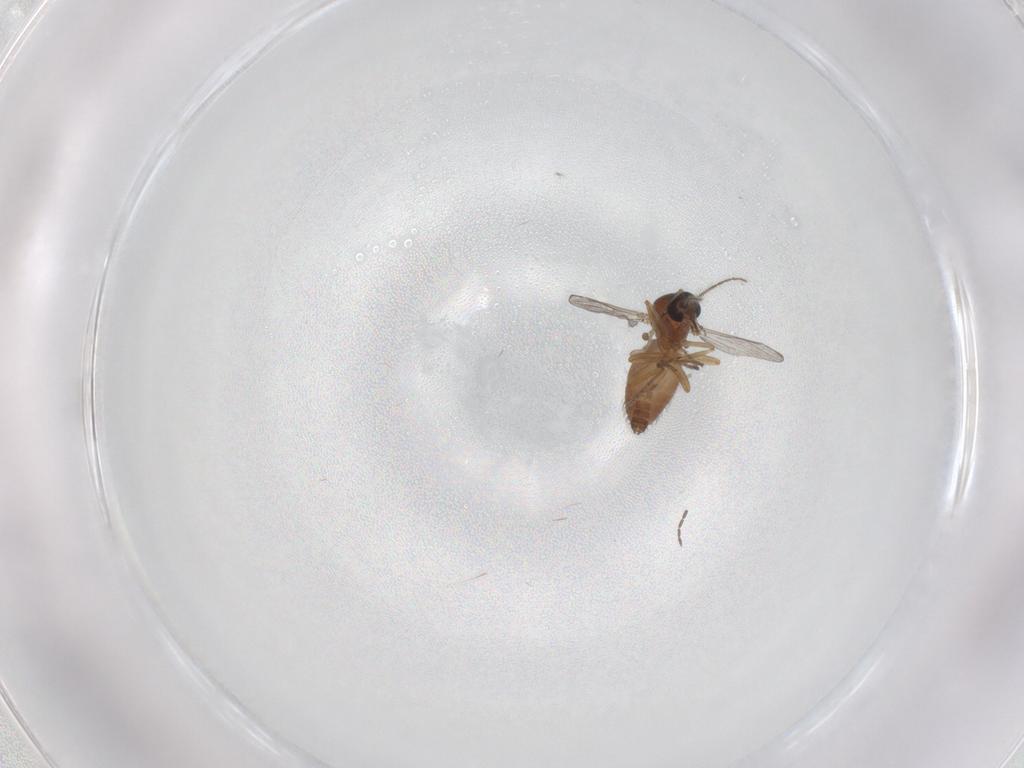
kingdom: Animalia
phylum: Arthropoda
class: Insecta
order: Diptera
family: Ceratopogonidae
